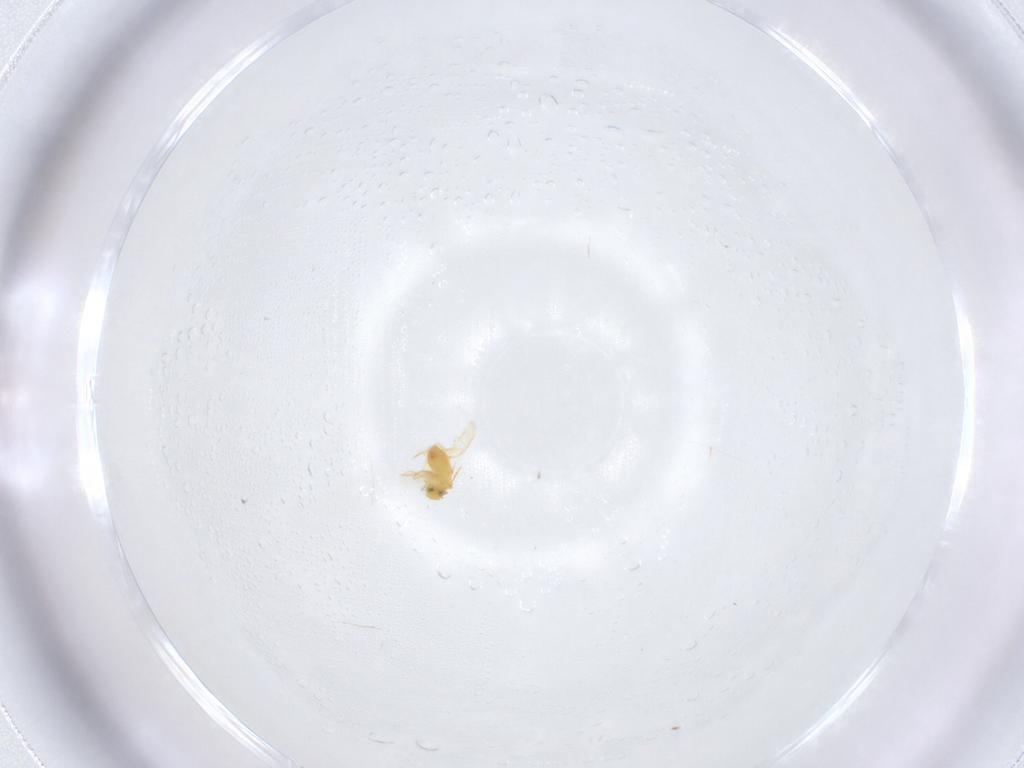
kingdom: Animalia
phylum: Arthropoda
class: Insecta
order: Hemiptera
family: Aleyrodidae
